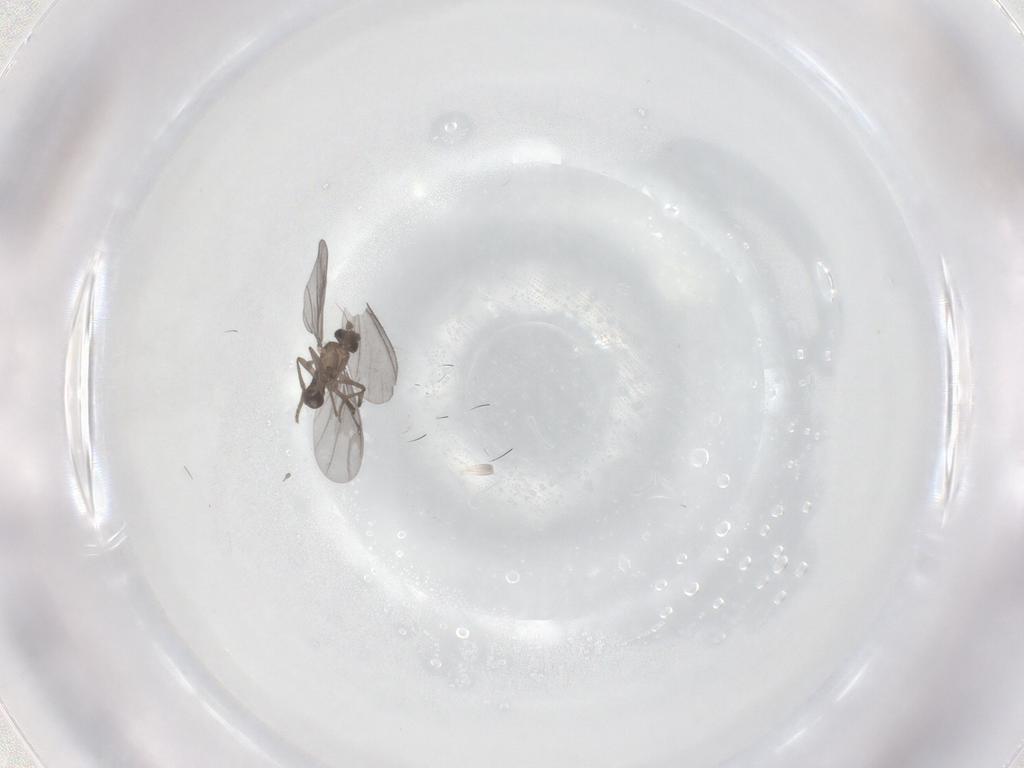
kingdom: Animalia
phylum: Arthropoda
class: Insecta
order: Diptera
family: Phoridae
